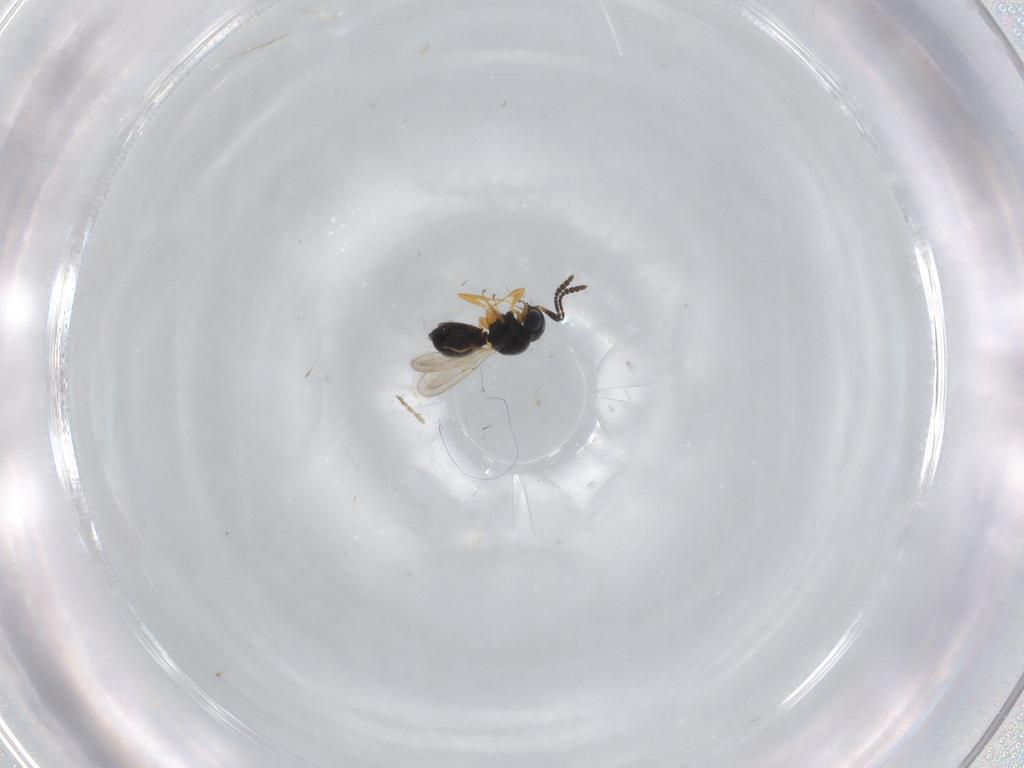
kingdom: Animalia
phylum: Arthropoda
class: Insecta
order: Hymenoptera
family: Scelionidae
